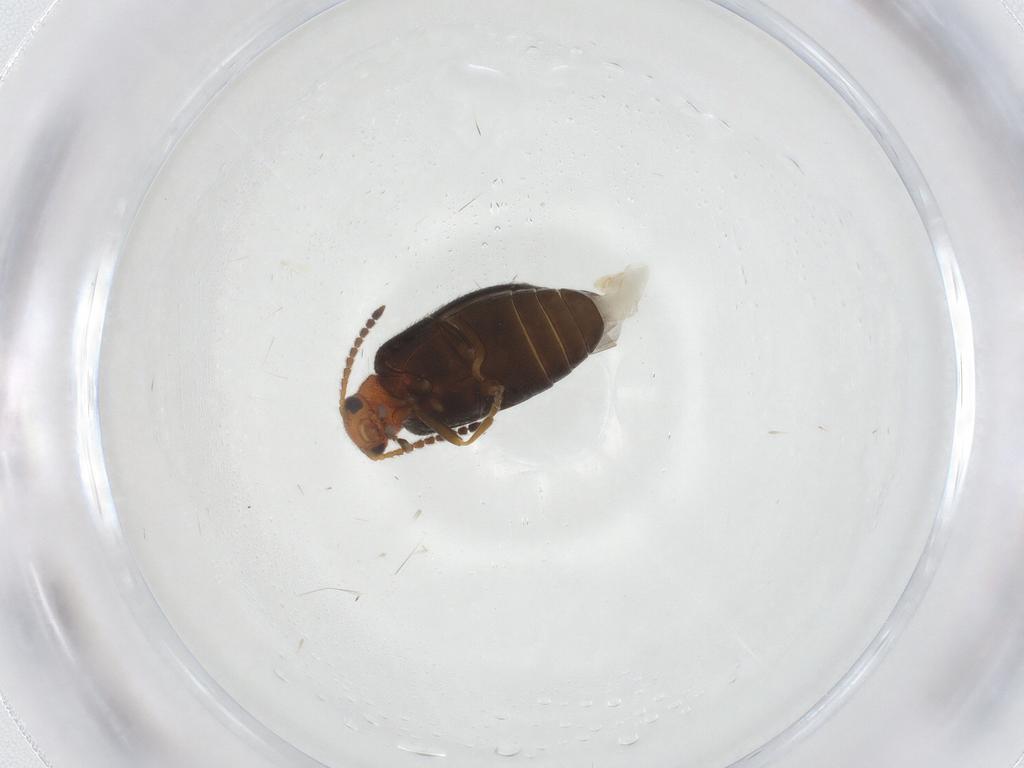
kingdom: Animalia
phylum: Arthropoda
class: Insecta
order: Coleoptera
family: Aderidae
